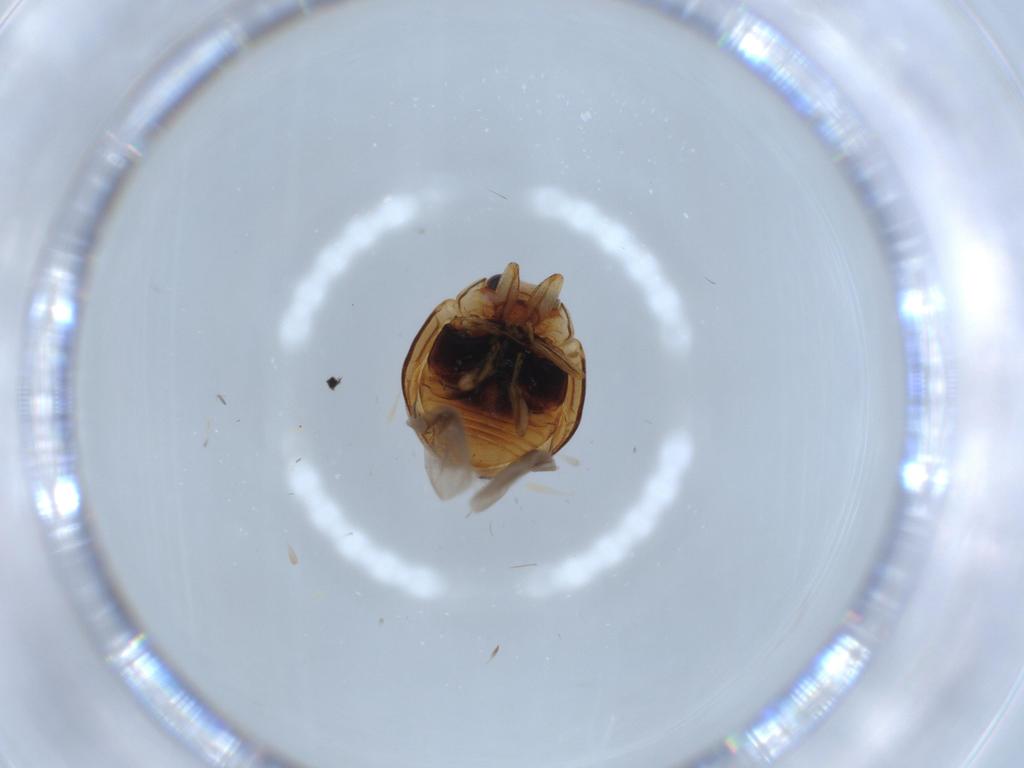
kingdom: Animalia
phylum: Arthropoda
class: Insecta
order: Coleoptera
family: Coccinellidae
